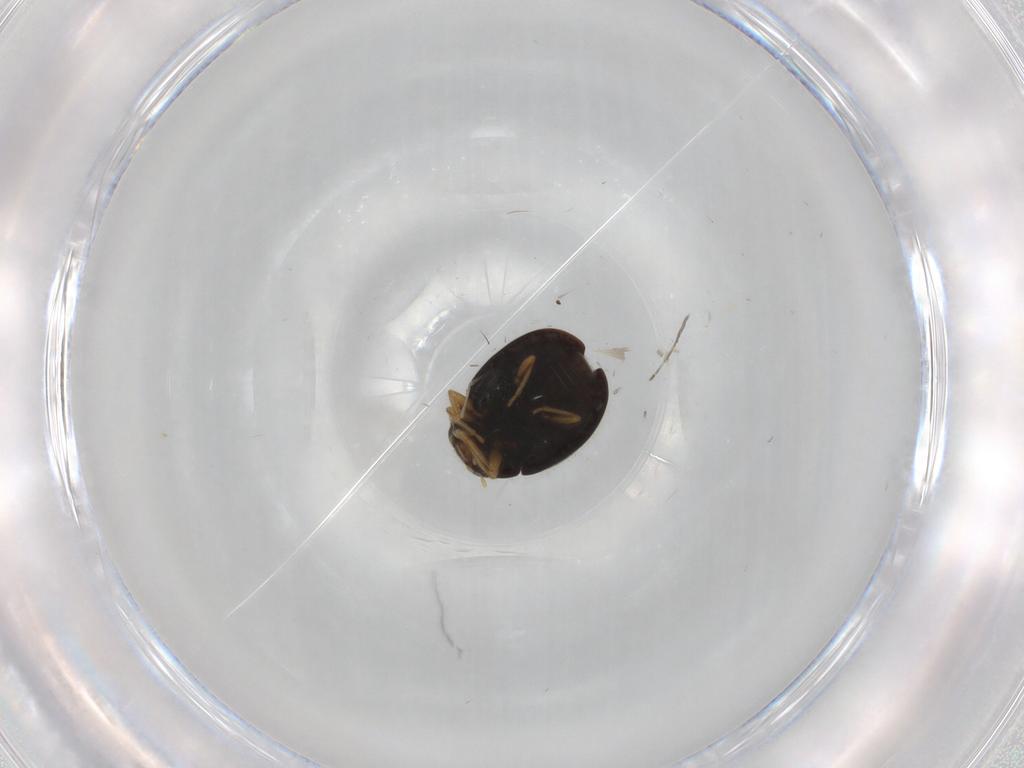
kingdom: Animalia
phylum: Arthropoda
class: Insecta
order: Coleoptera
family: Coccinellidae
